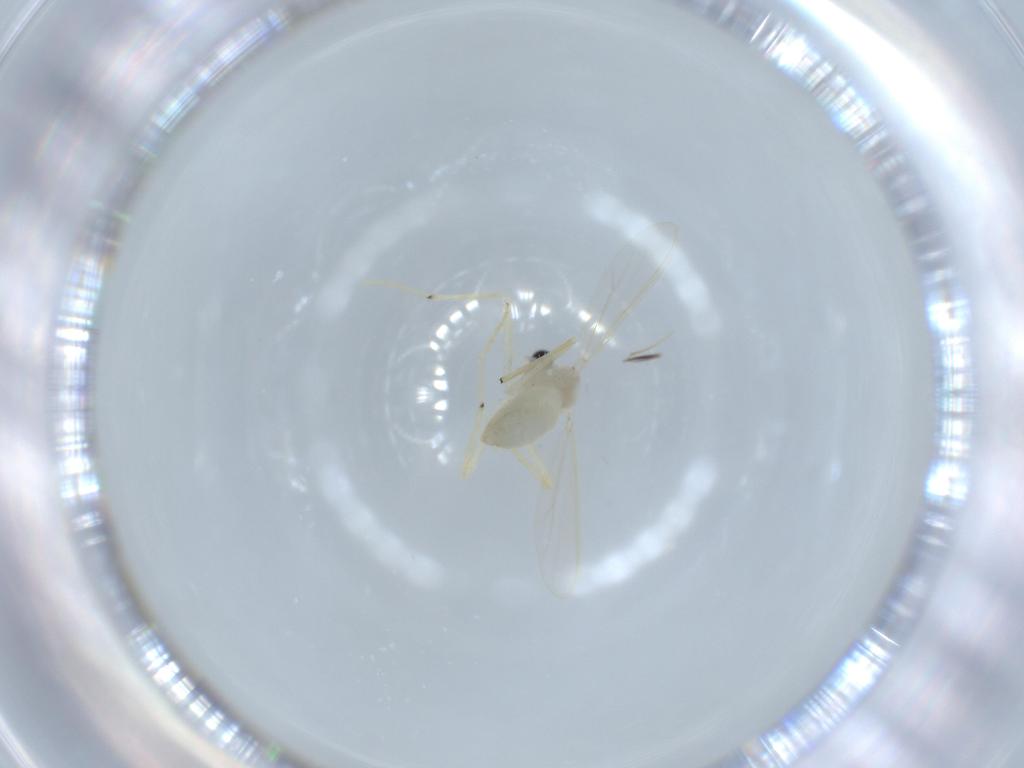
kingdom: Animalia
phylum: Arthropoda
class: Insecta
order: Diptera
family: Chironomidae
